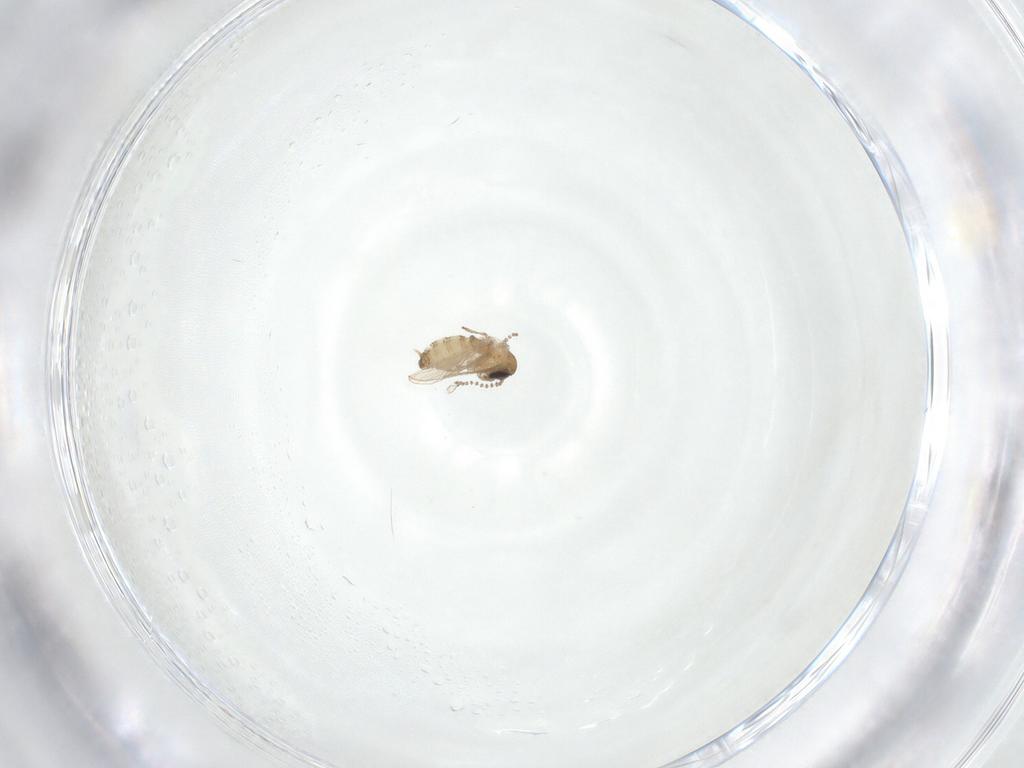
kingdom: Animalia
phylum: Arthropoda
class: Insecta
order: Diptera
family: Psychodidae
